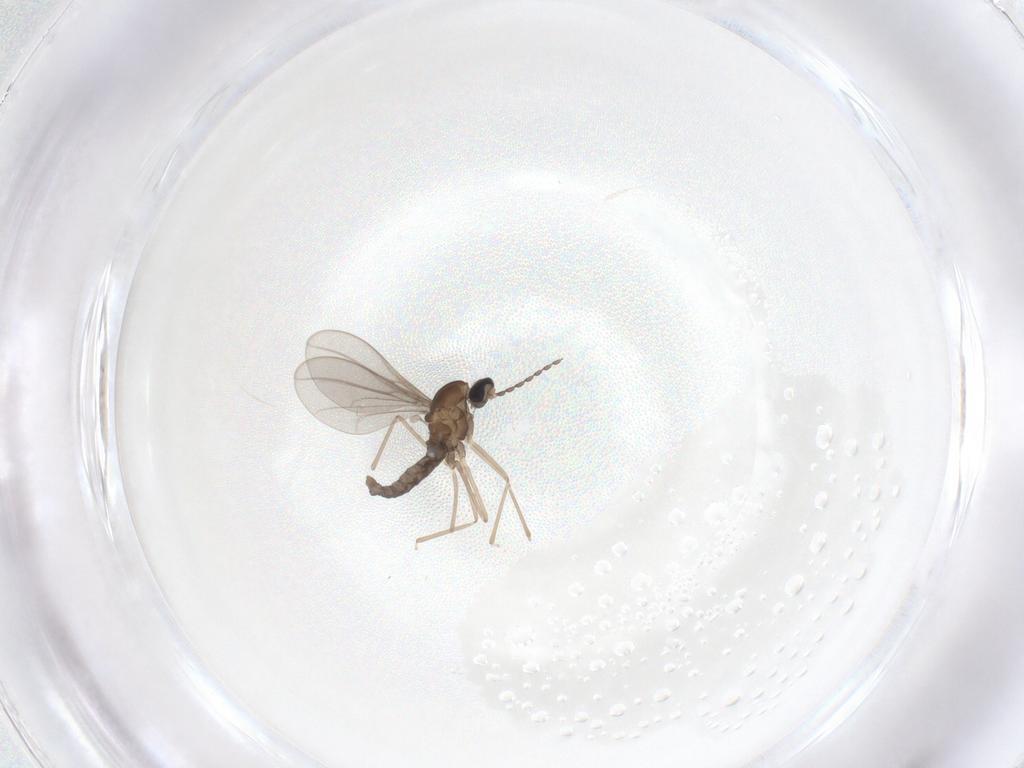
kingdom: Animalia
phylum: Arthropoda
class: Insecta
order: Diptera
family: Cecidomyiidae
